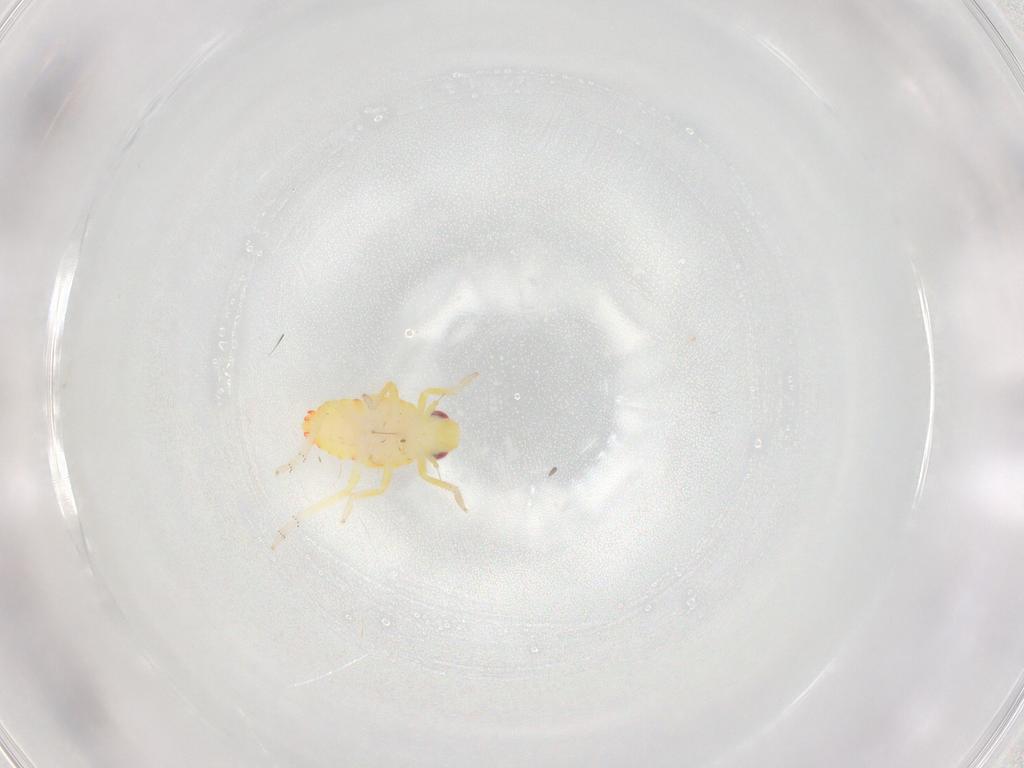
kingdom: Animalia
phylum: Arthropoda
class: Insecta
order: Hemiptera
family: Tropiduchidae
